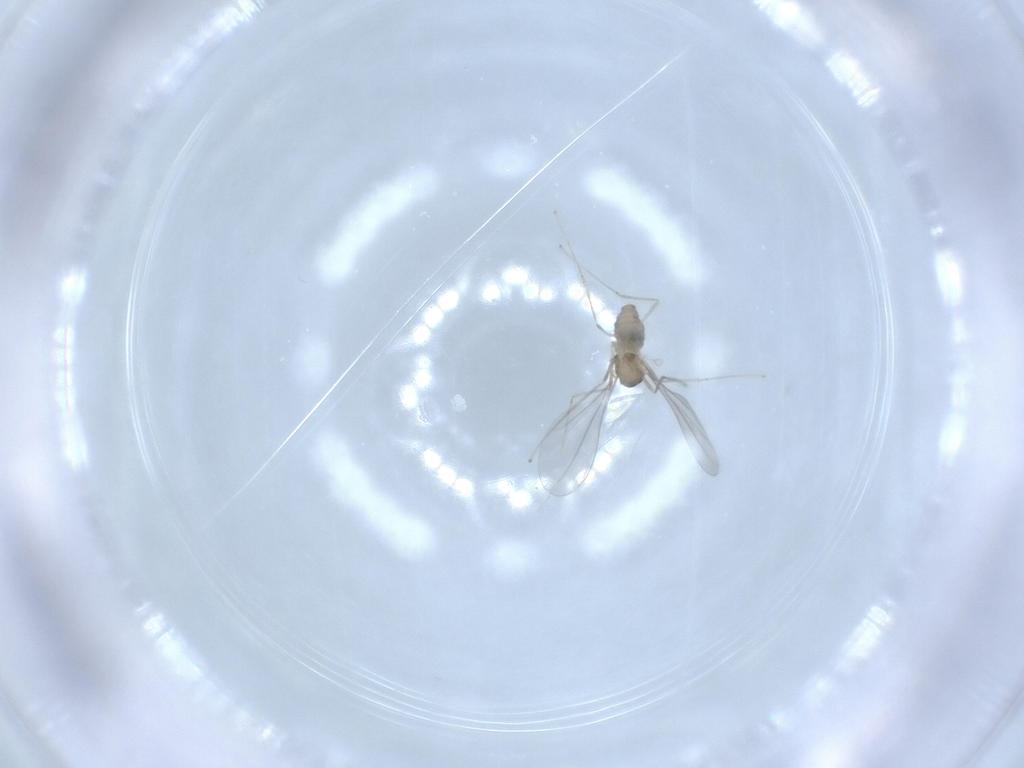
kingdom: Animalia
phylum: Arthropoda
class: Insecta
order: Diptera
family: Cecidomyiidae
